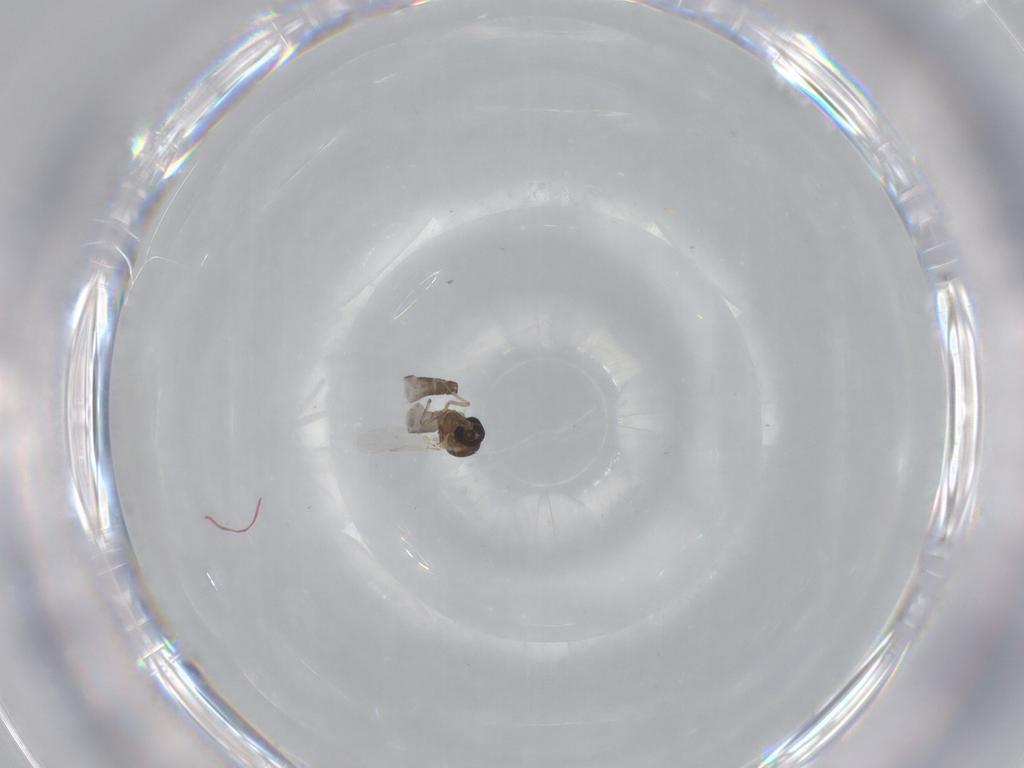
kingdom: Animalia
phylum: Arthropoda
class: Insecta
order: Diptera
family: Ceratopogonidae
